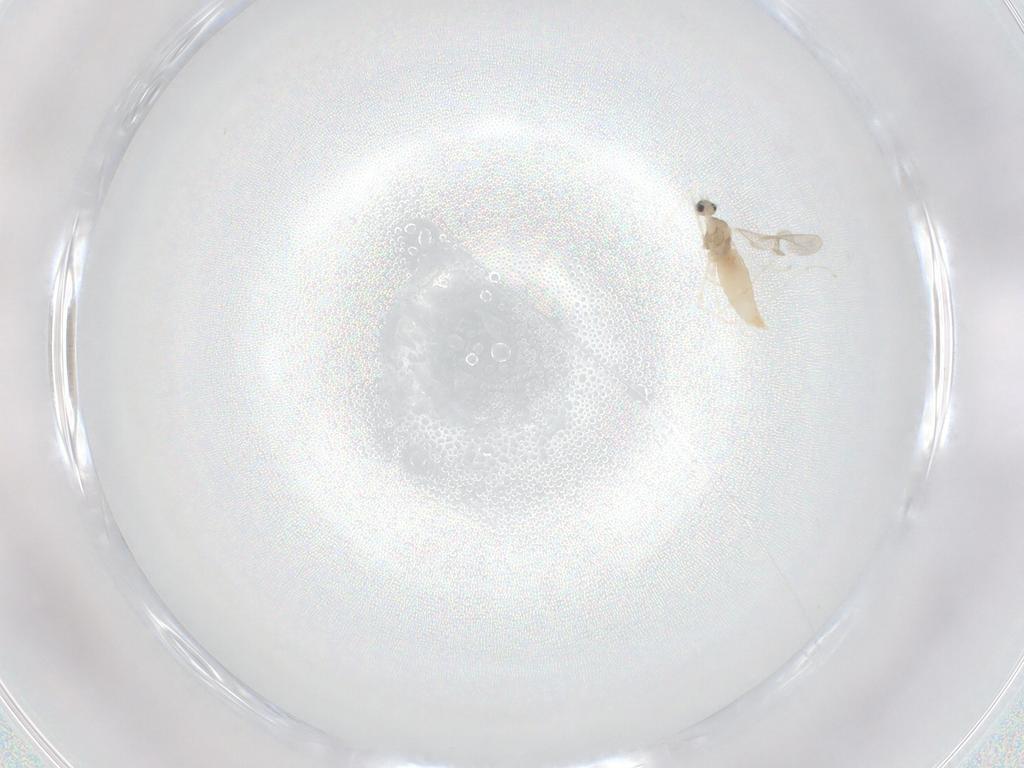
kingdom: Animalia
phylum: Arthropoda
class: Insecta
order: Diptera
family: Cecidomyiidae
